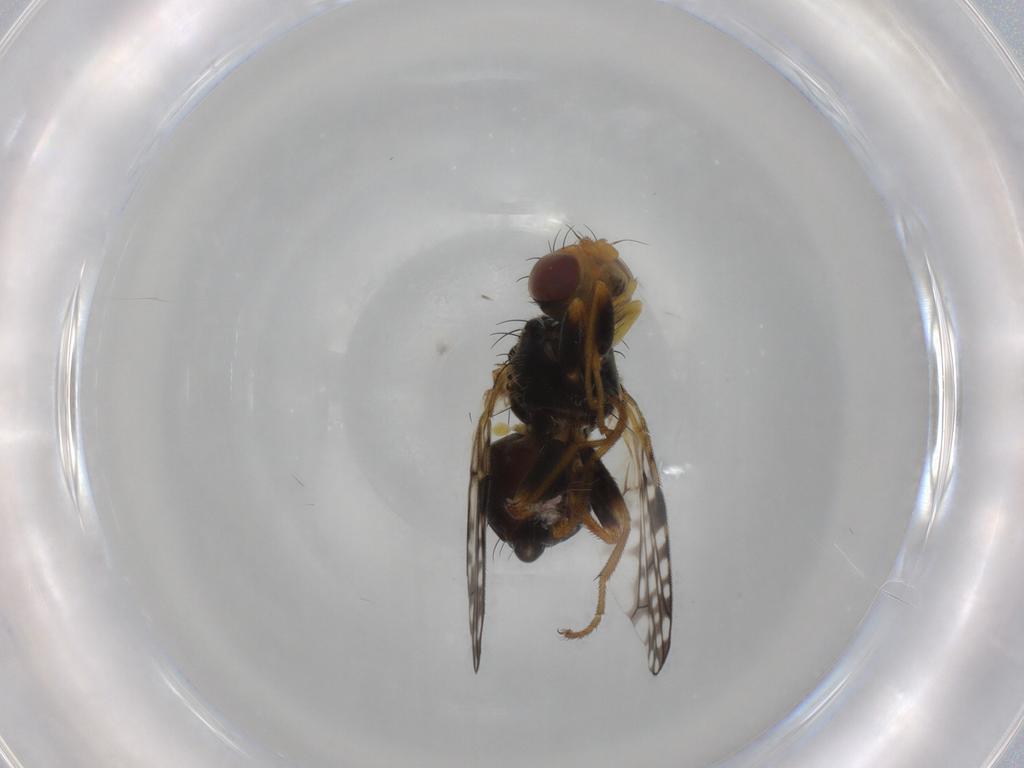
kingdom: Animalia
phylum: Arthropoda
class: Insecta
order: Diptera
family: Tephritidae
